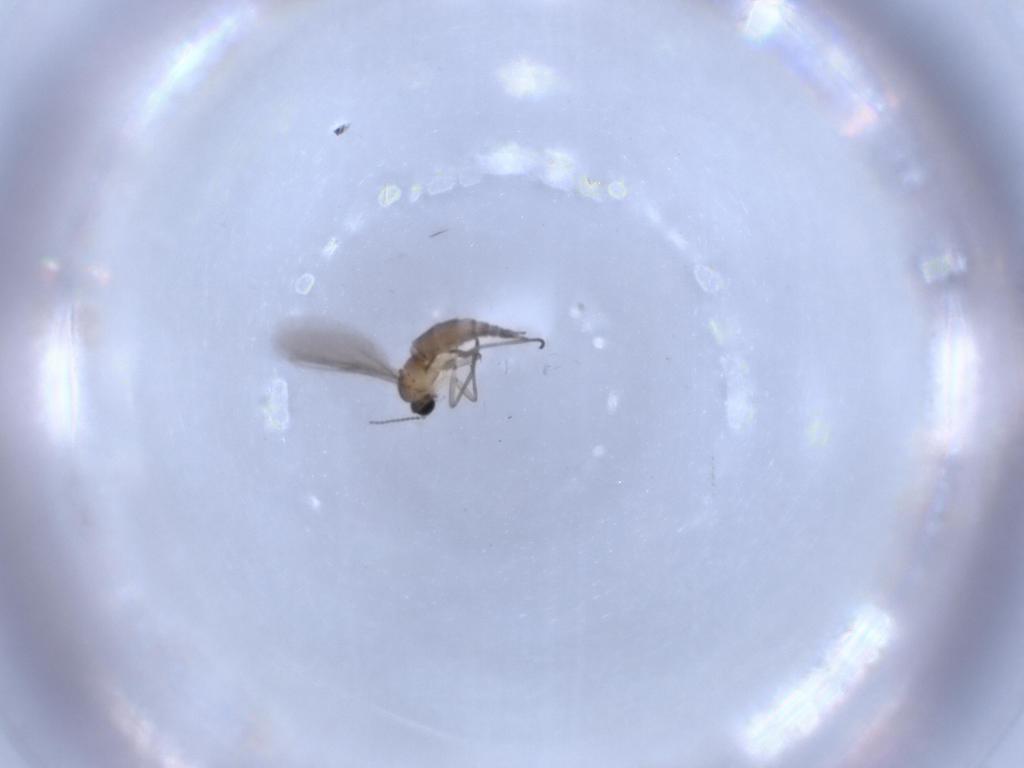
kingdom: Animalia
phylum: Arthropoda
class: Insecta
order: Diptera
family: Sciaridae
